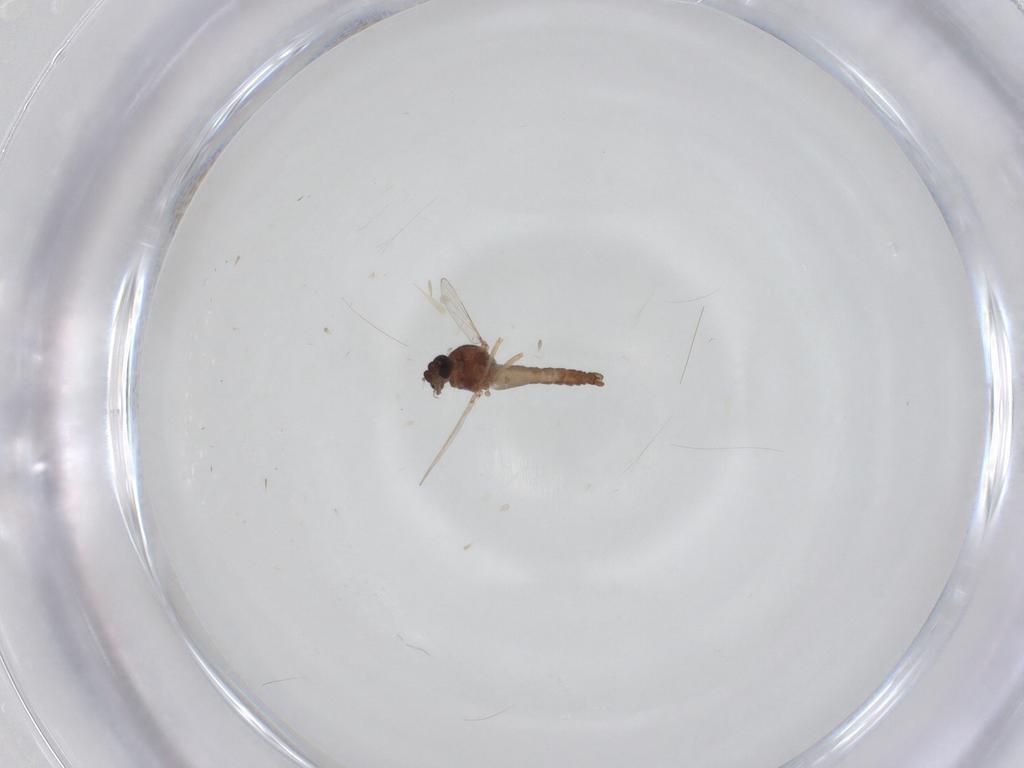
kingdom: Animalia
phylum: Arthropoda
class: Insecta
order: Diptera
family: Ceratopogonidae
